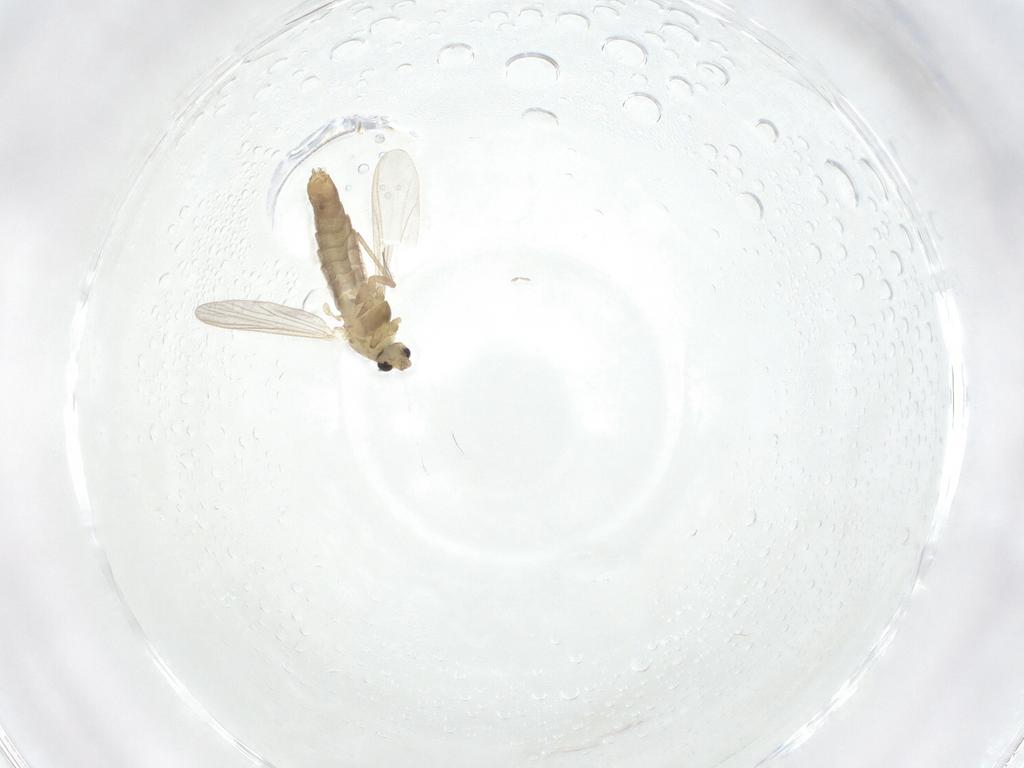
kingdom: Animalia
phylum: Arthropoda
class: Insecta
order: Diptera
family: Chironomidae
